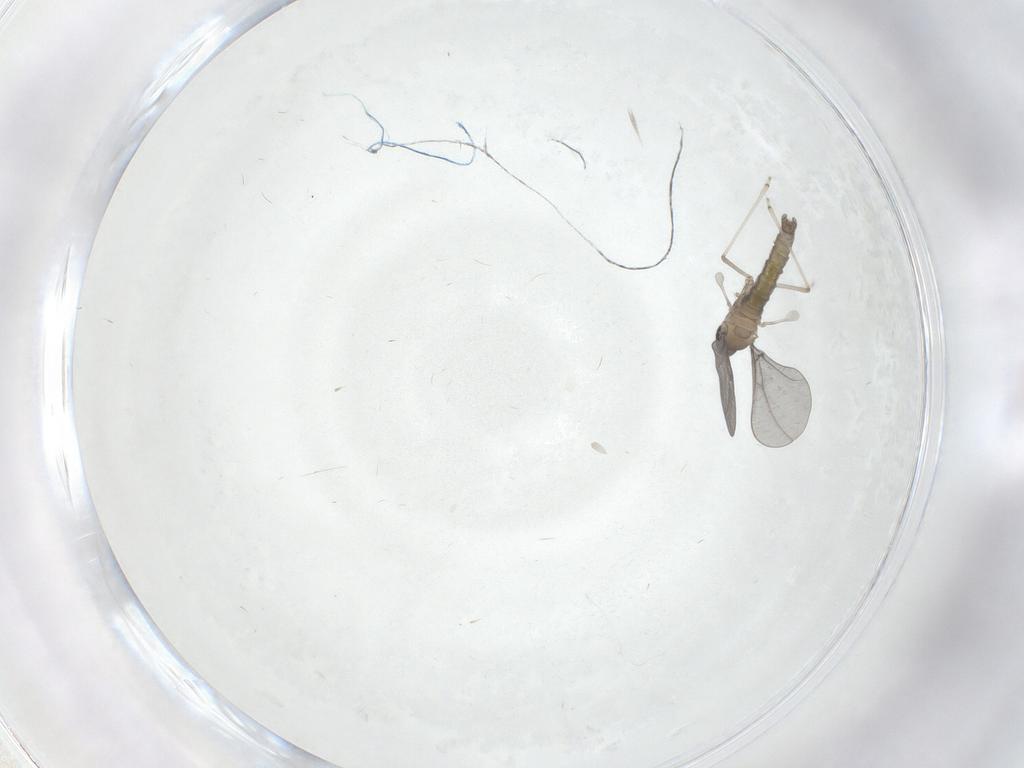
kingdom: Animalia
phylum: Arthropoda
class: Insecta
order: Diptera
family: Cecidomyiidae
